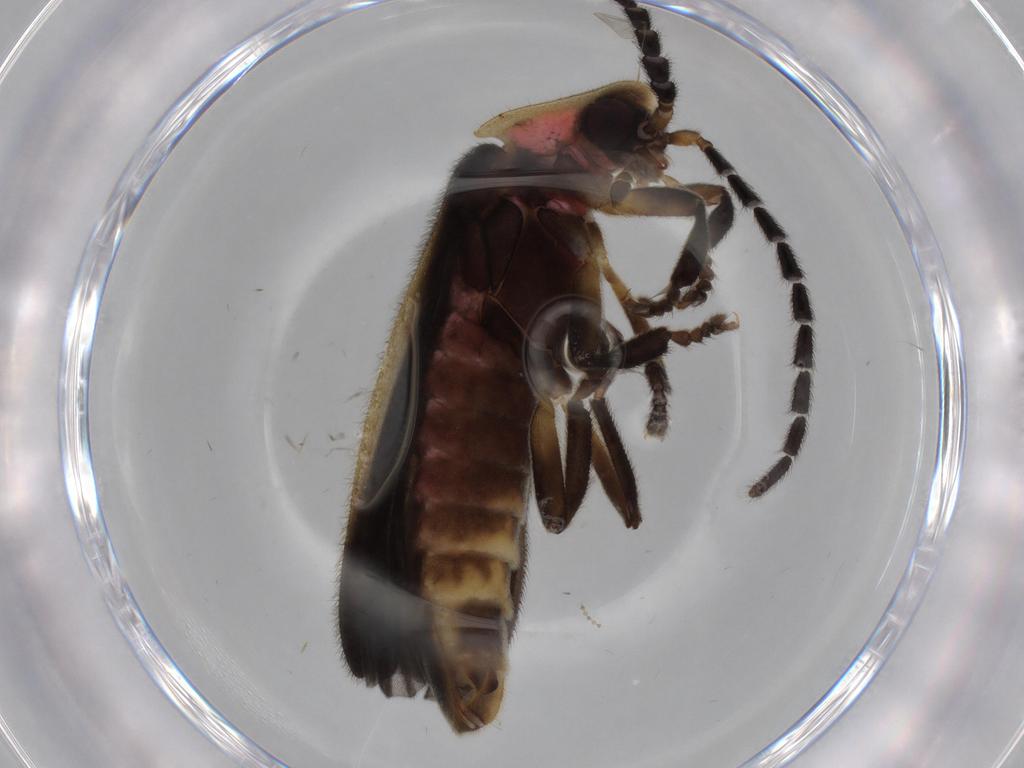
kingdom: Animalia
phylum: Arthropoda
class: Insecta
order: Coleoptera
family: Lampyridae
